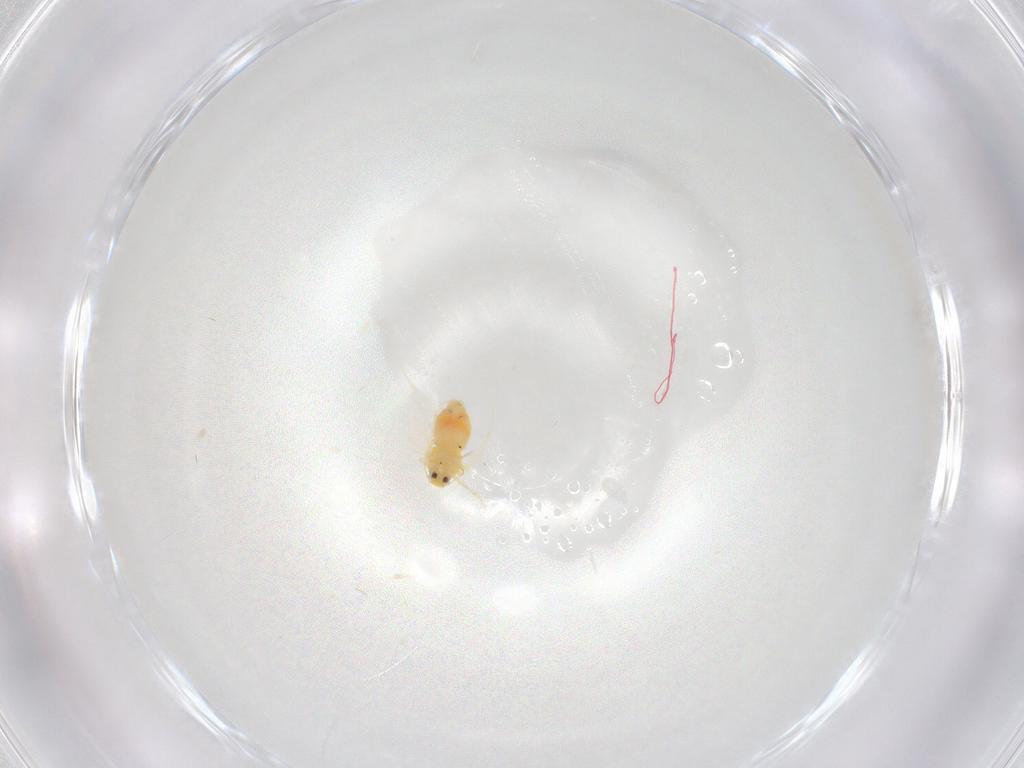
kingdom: Animalia
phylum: Arthropoda
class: Insecta
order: Hemiptera
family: Aleyrodidae
